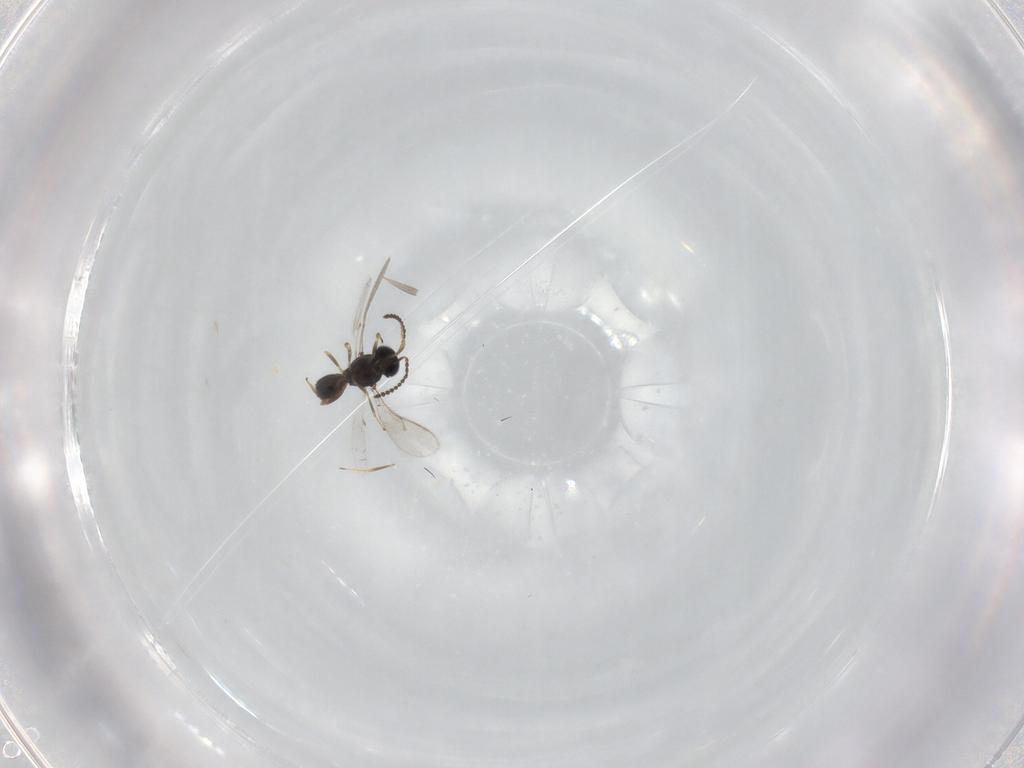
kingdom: Animalia
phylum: Arthropoda
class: Insecta
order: Hymenoptera
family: Scelionidae
